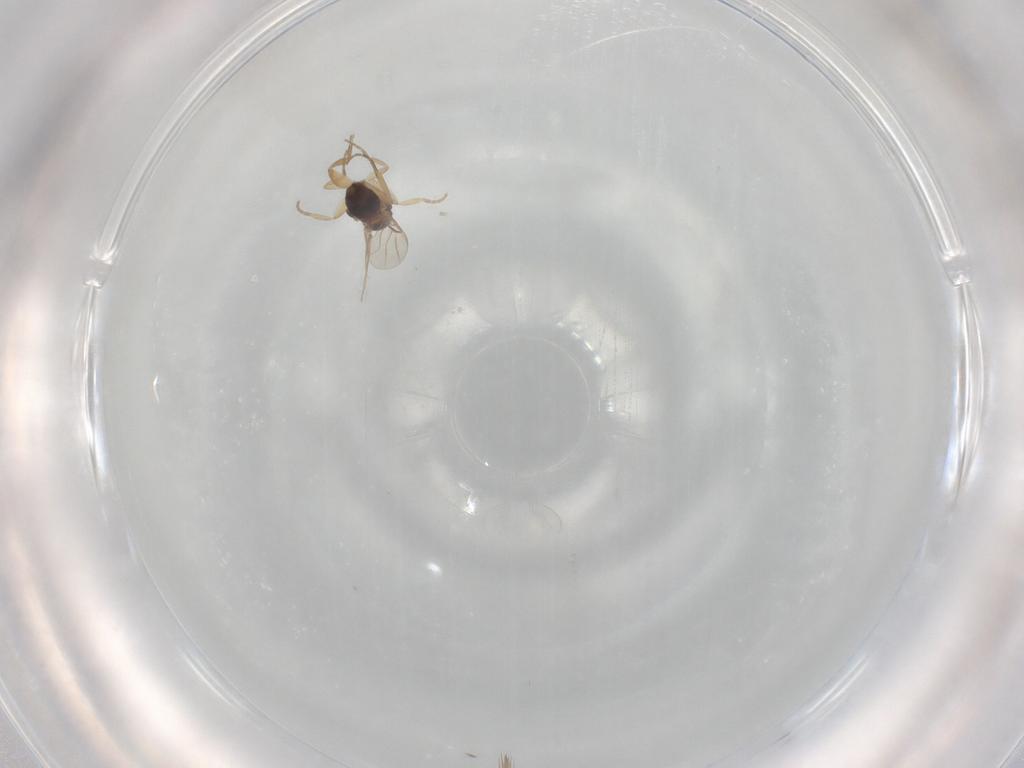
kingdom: Animalia
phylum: Arthropoda
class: Insecta
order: Diptera
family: Phoridae
